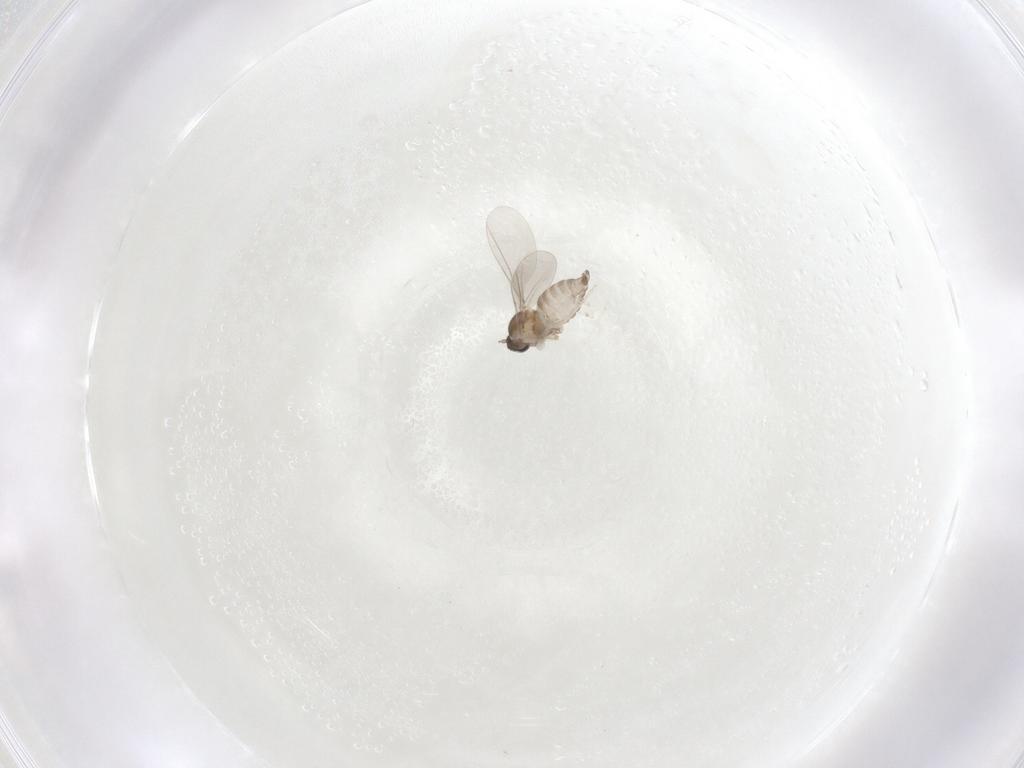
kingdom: Animalia
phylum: Arthropoda
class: Insecta
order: Diptera
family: Cecidomyiidae
